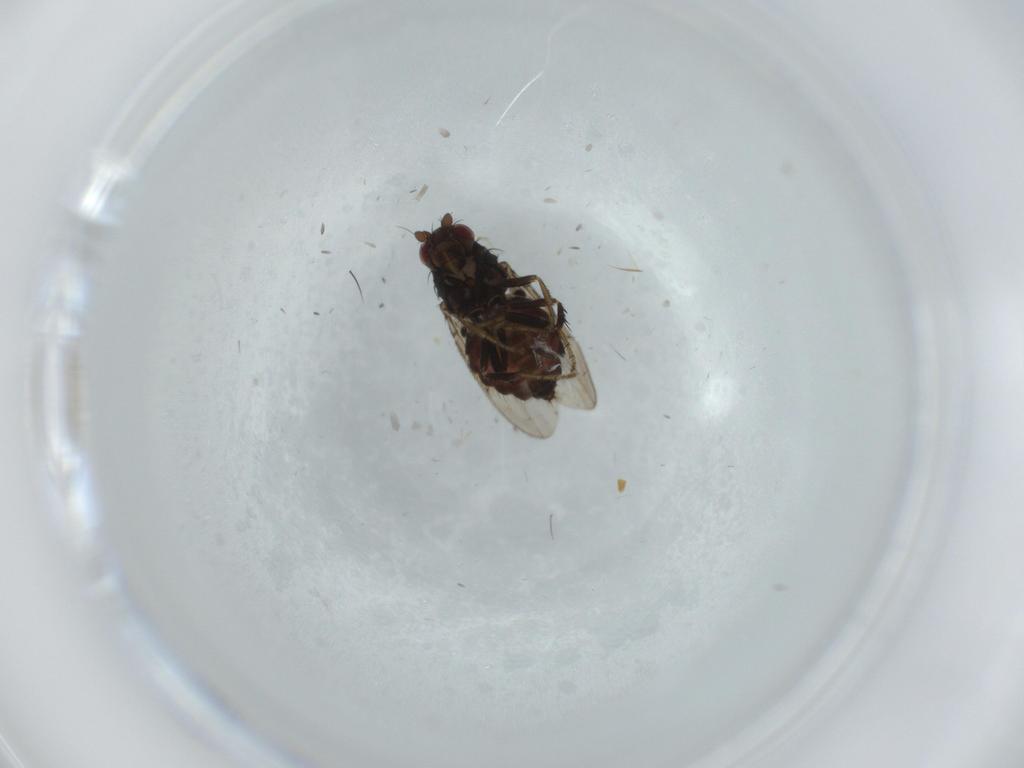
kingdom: Animalia
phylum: Arthropoda
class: Insecta
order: Diptera
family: Sphaeroceridae
